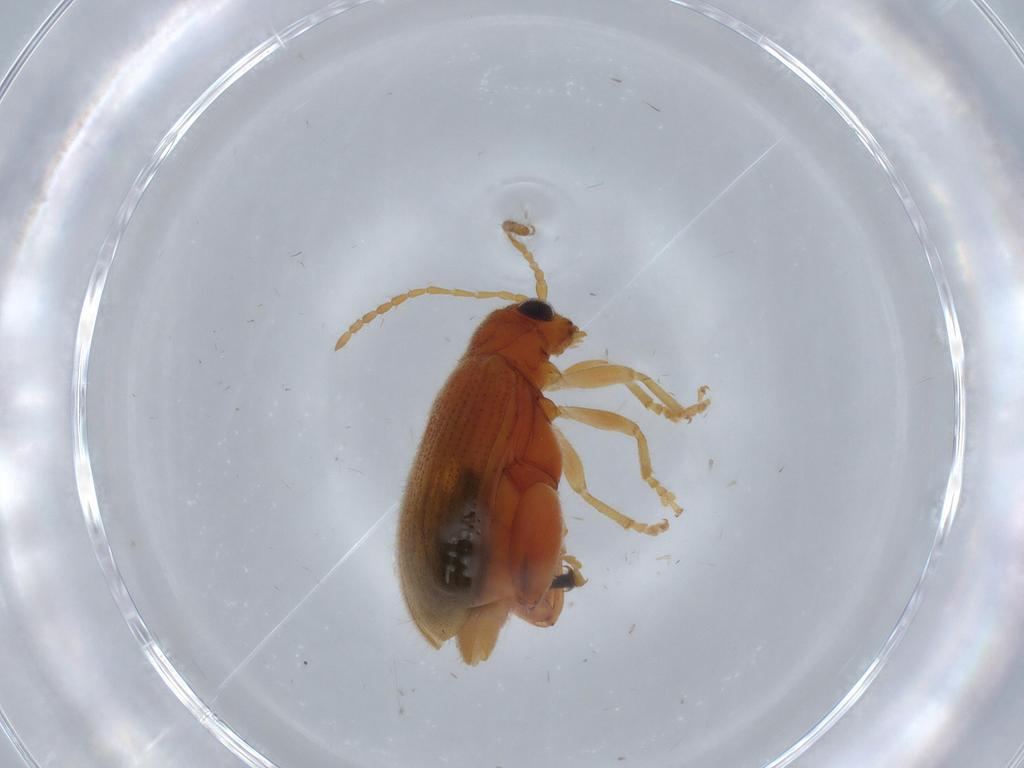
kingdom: Animalia
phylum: Arthropoda
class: Insecta
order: Coleoptera
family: Chrysomelidae
